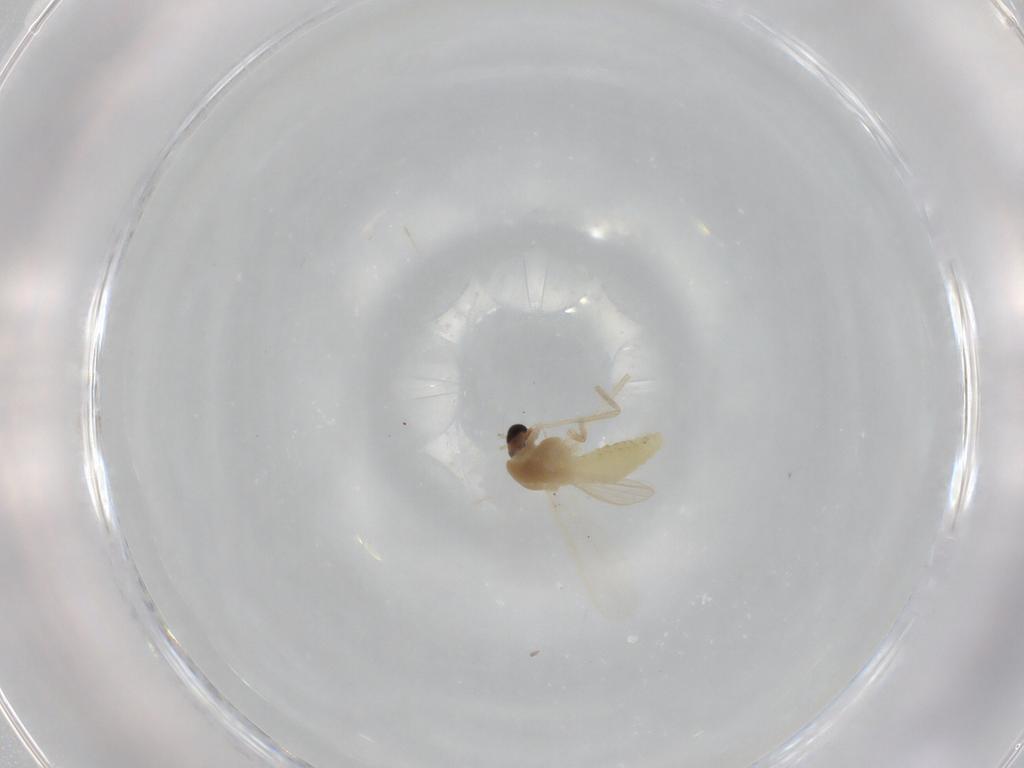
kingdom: Animalia
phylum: Arthropoda
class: Insecta
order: Diptera
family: Chironomidae
